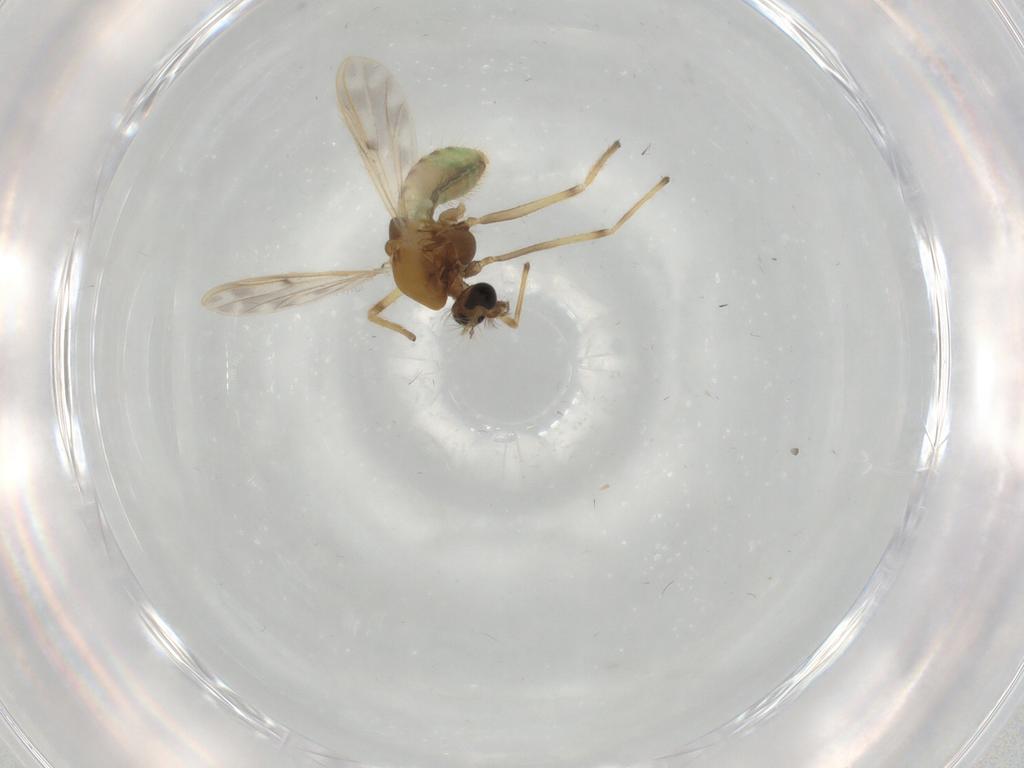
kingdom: Animalia
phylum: Arthropoda
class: Insecta
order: Diptera
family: Chironomidae
